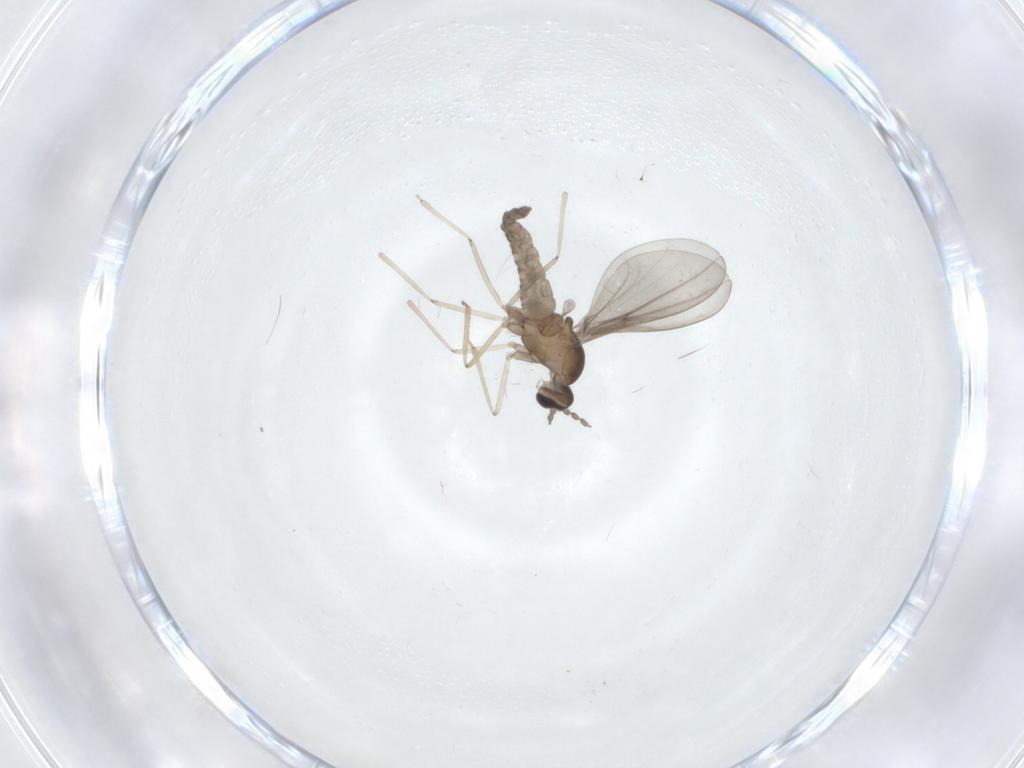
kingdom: Animalia
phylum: Arthropoda
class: Insecta
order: Diptera
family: Cecidomyiidae
